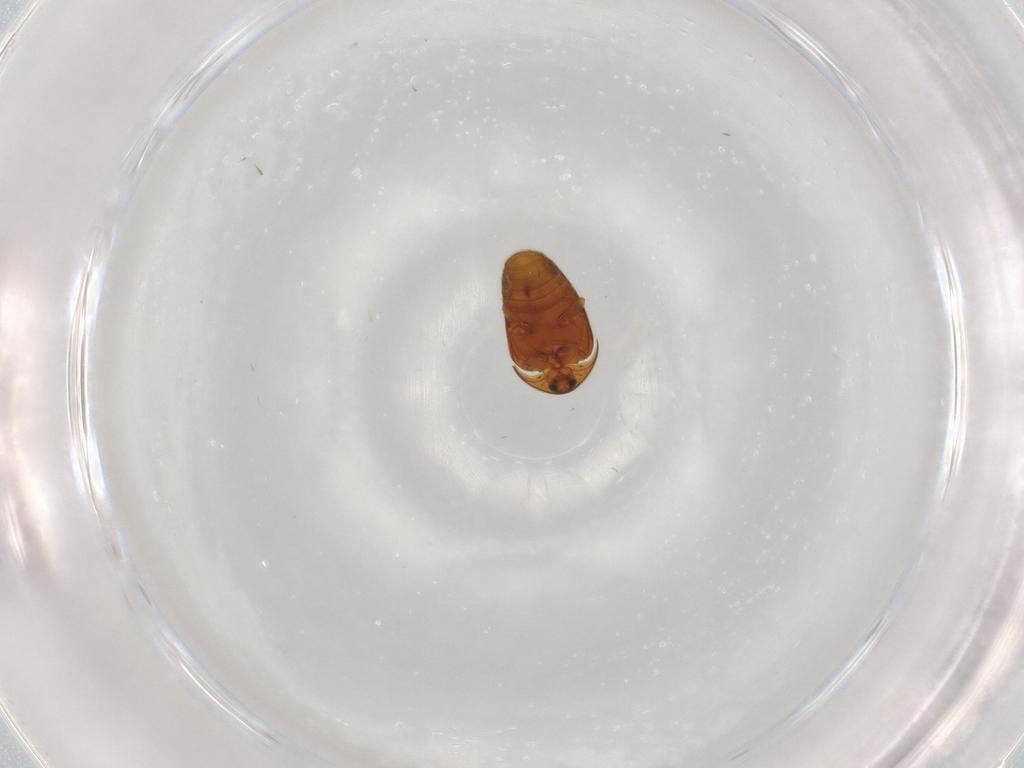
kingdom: Animalia
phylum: Arthropoda
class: Insecta
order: Coleoptera
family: Corylophidae
